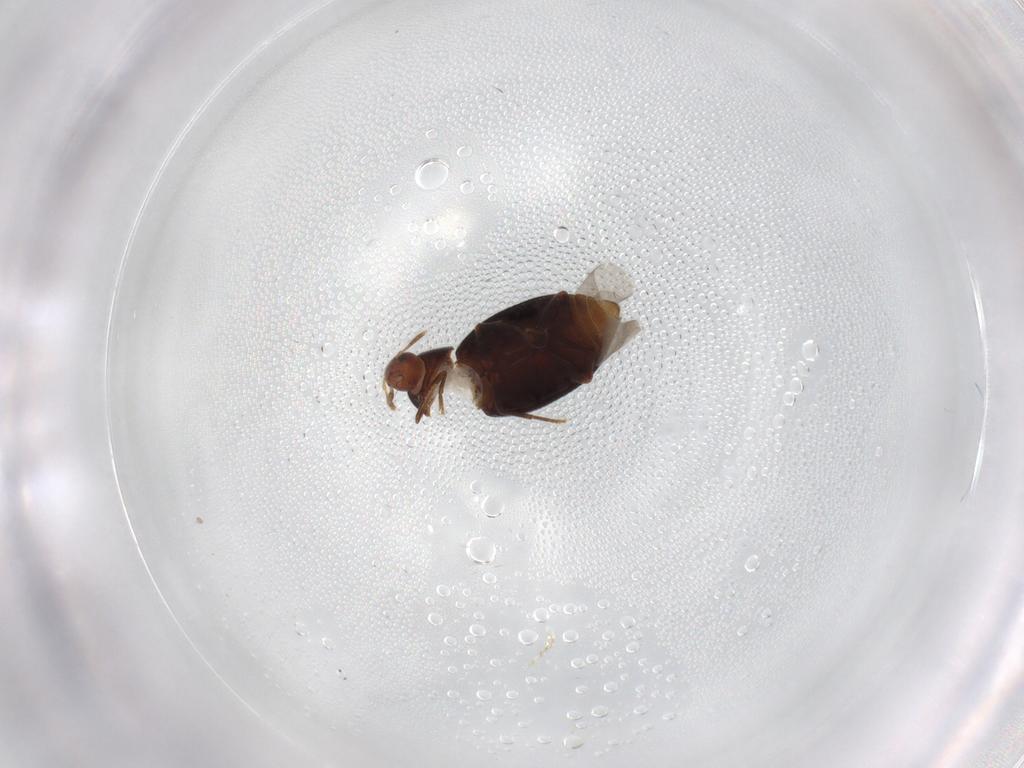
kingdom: Animalia
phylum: Arthropoda
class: Insecta
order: Coleoptera
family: Melandryidae
